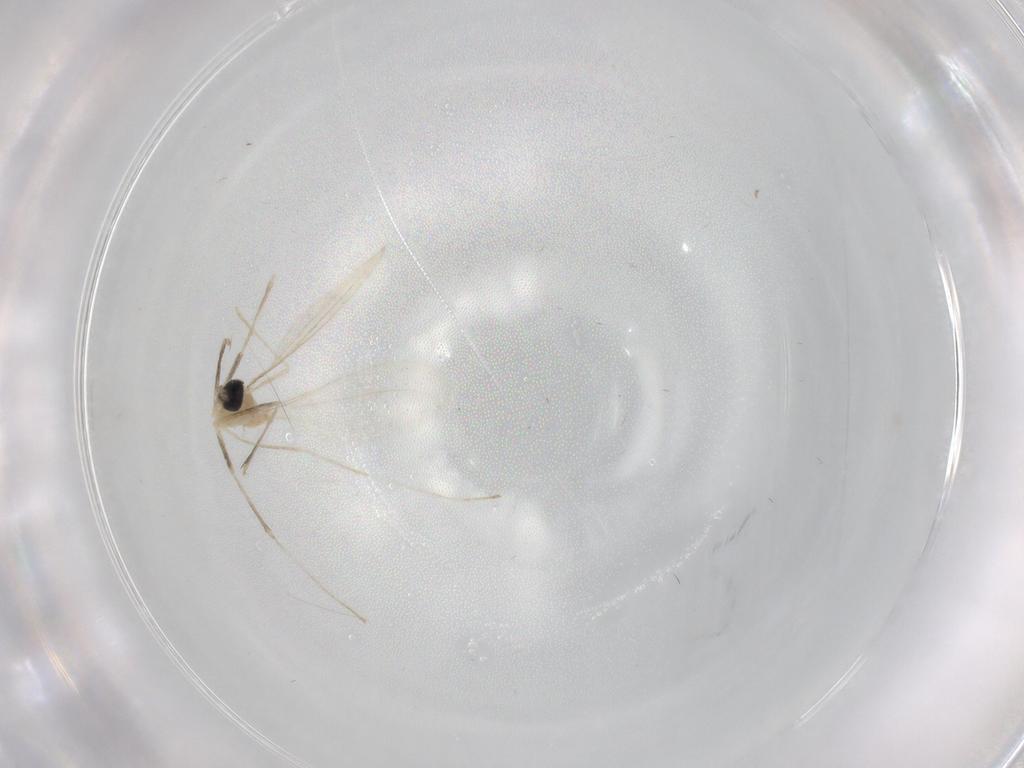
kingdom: Animalia
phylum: Arthropoda
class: Insecta
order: Diptera
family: Cecidomyiidae
